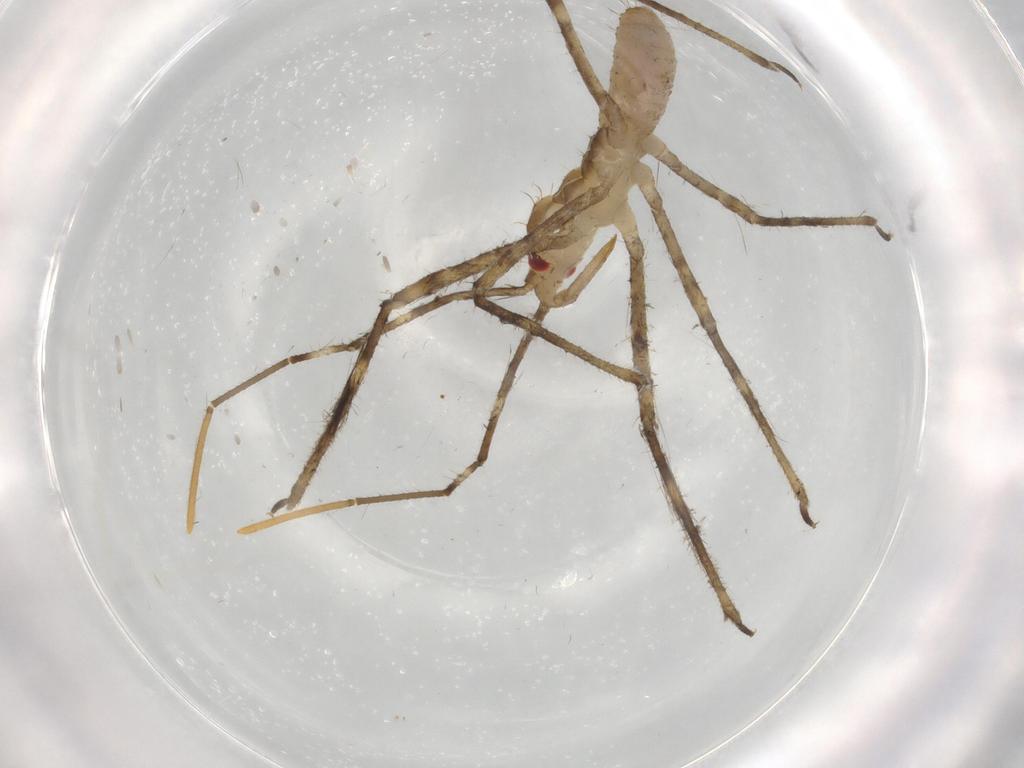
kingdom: Animalia
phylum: Arthropoda
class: Insecta
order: Hemiptera
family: Reduviidae
